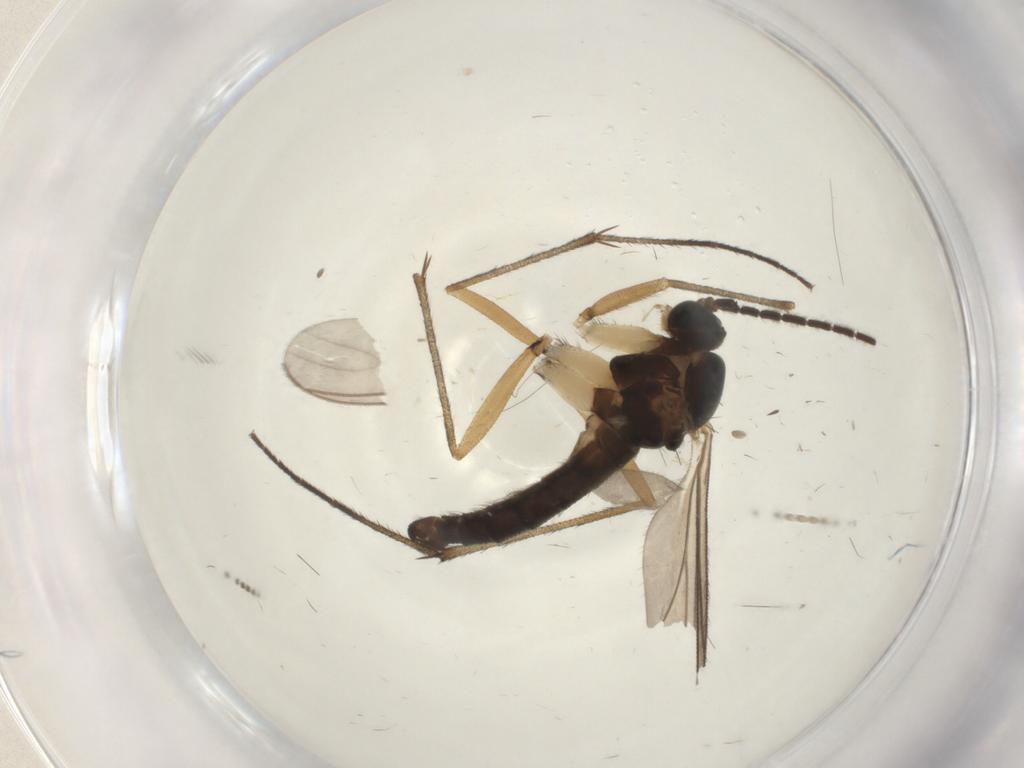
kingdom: Animalia
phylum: Arthropoda
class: Insecta
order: Diptera
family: Sciaridae
